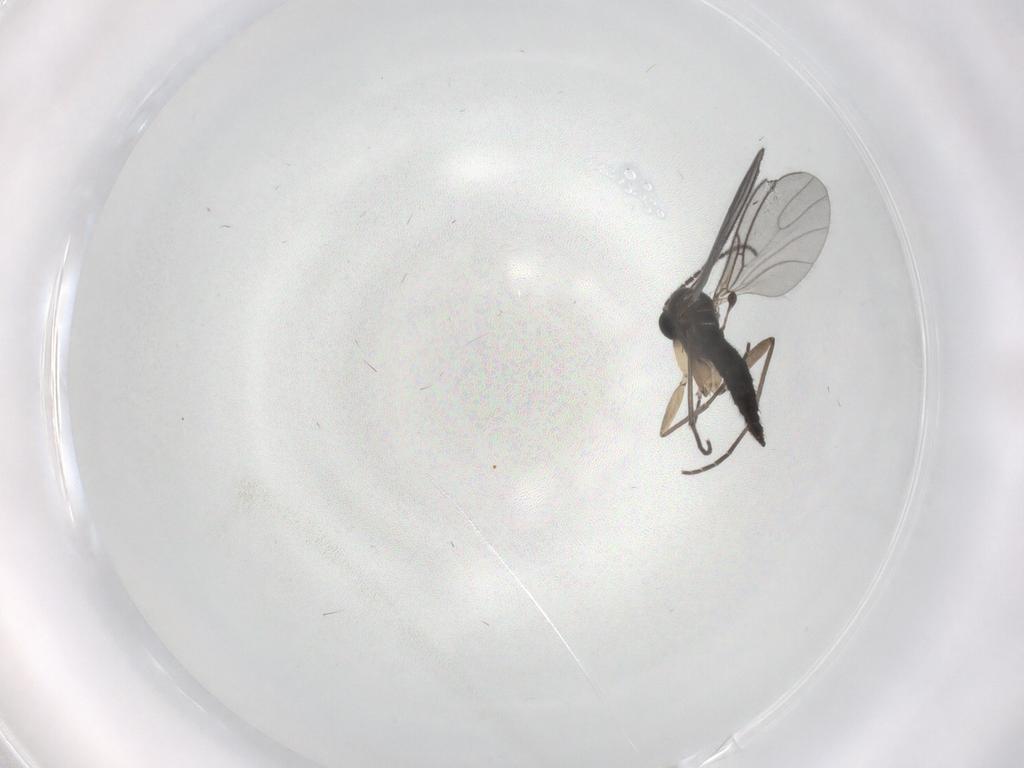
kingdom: Animalia
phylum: Arthropoda
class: Insecta
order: Diptera
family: Sciaridae
